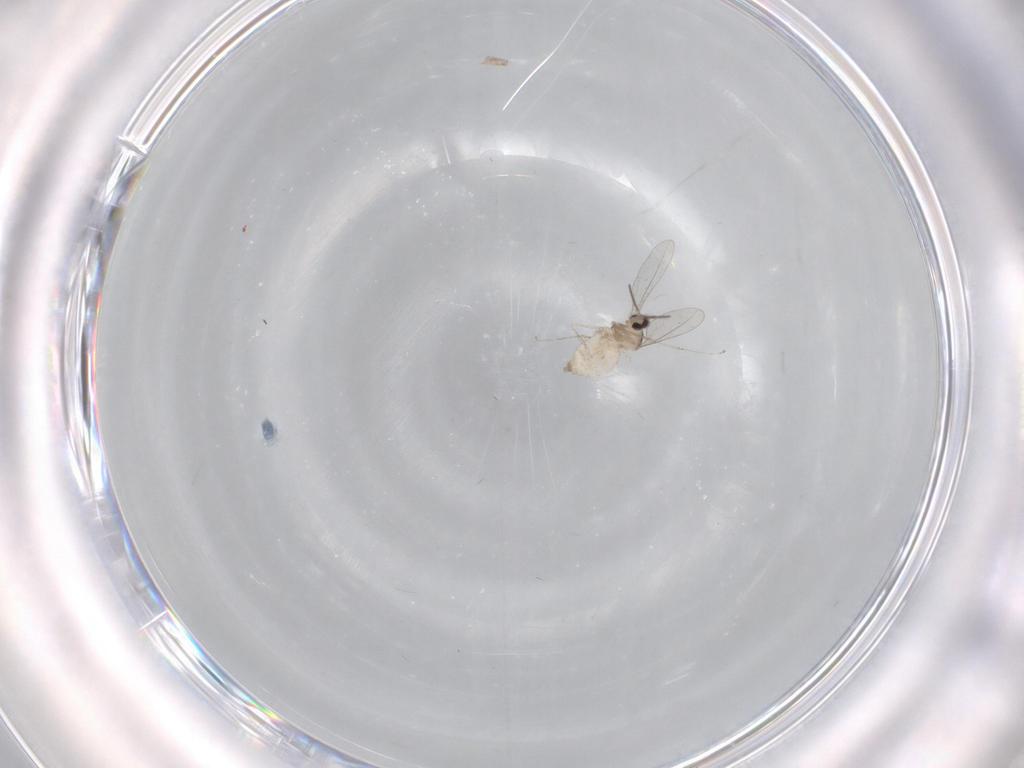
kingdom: Animalia
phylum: Arthropoda
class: Insecta
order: Diptera
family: Cecidomyiidae
